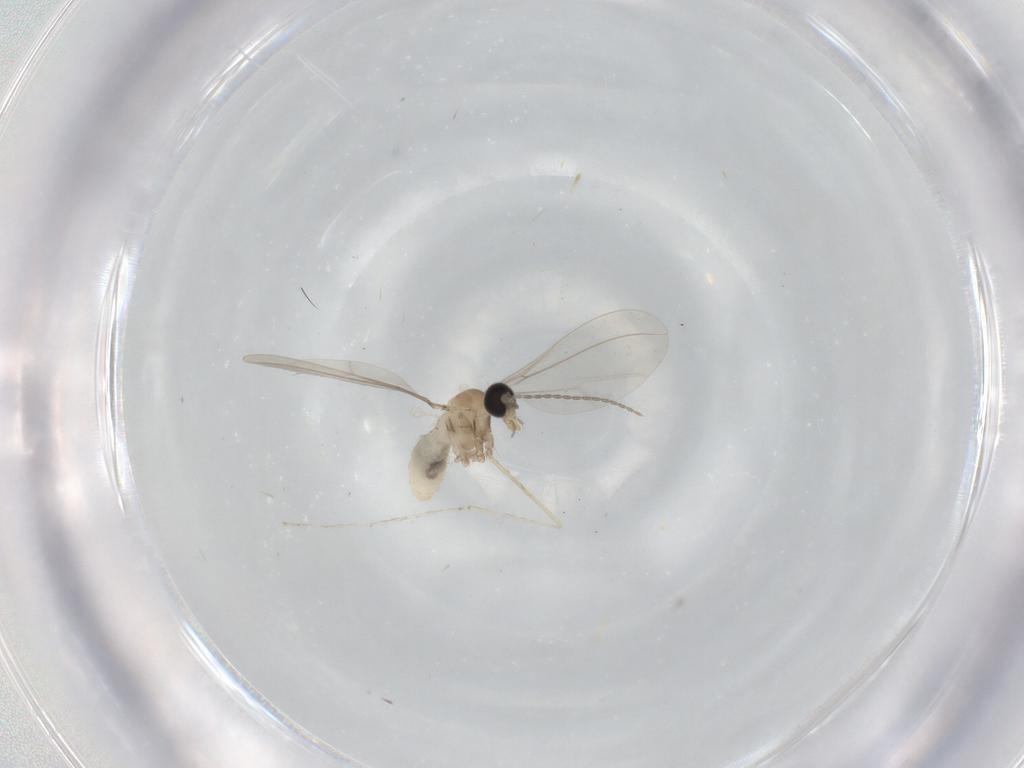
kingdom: Animalia
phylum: Arthropoda
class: Insecta
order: Diptera
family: Cecidomyiidae
